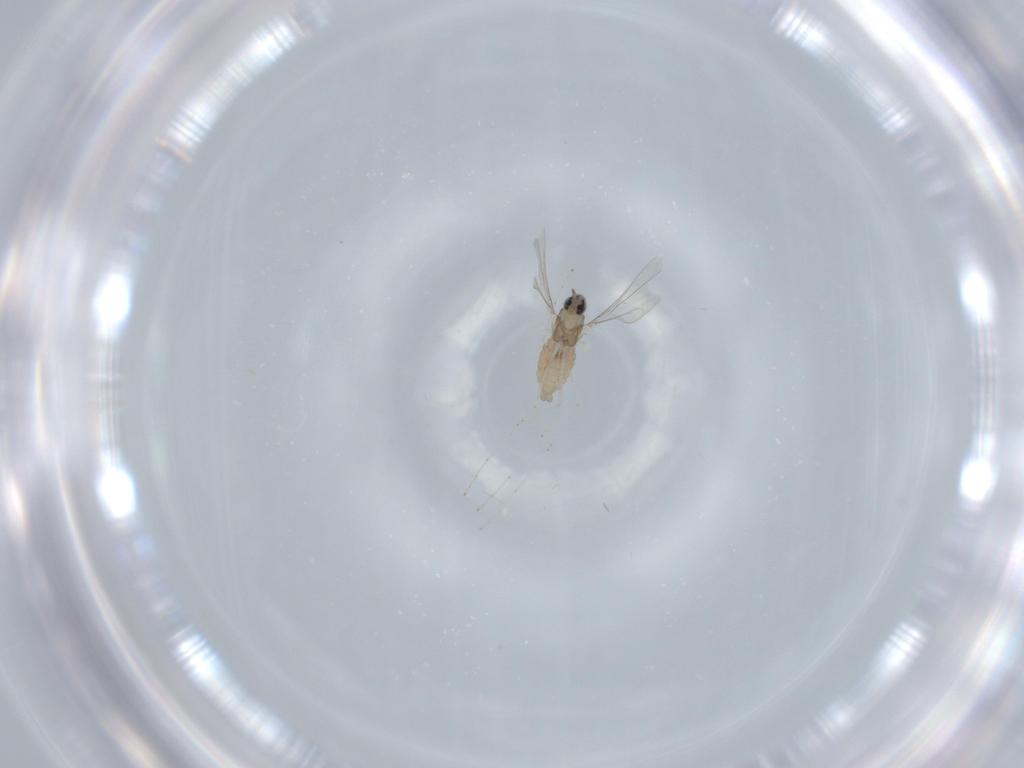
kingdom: Animalia
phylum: Arthropoda
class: Insecta
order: Diptera
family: Cecidomyiidae
